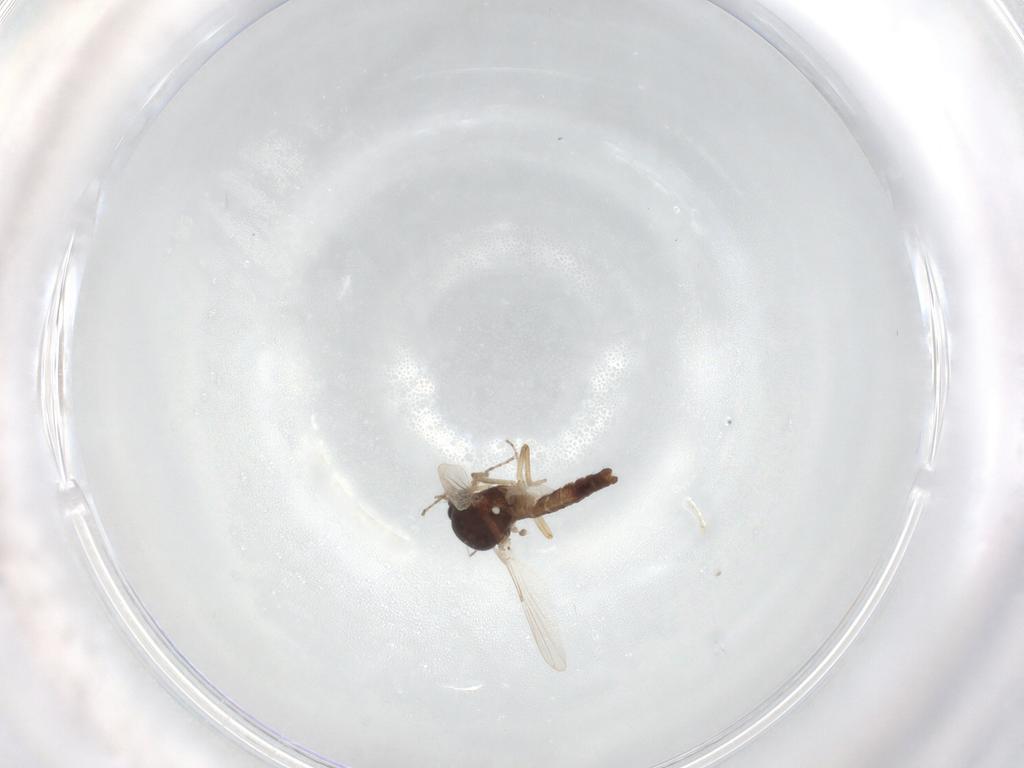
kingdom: Animalia
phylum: Arthropoda
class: Insecta
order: Diptera
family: Ceratopogonidae
